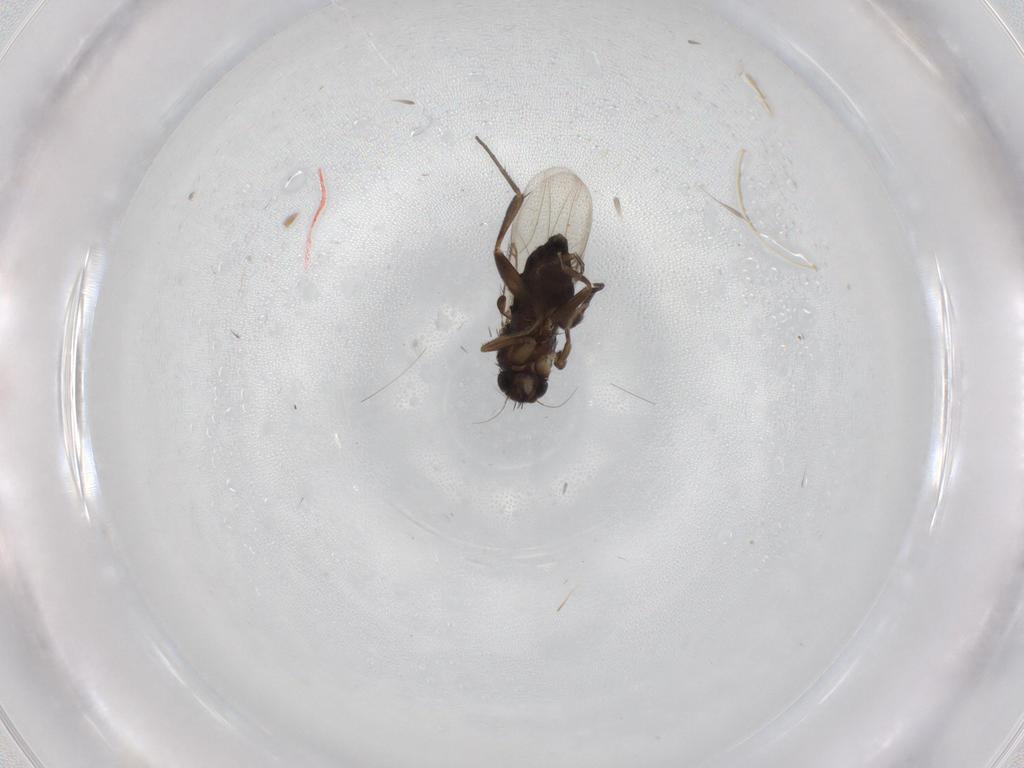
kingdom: Animalia
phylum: Arthropoda
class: Insecta
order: Diptera
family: Phoridae
